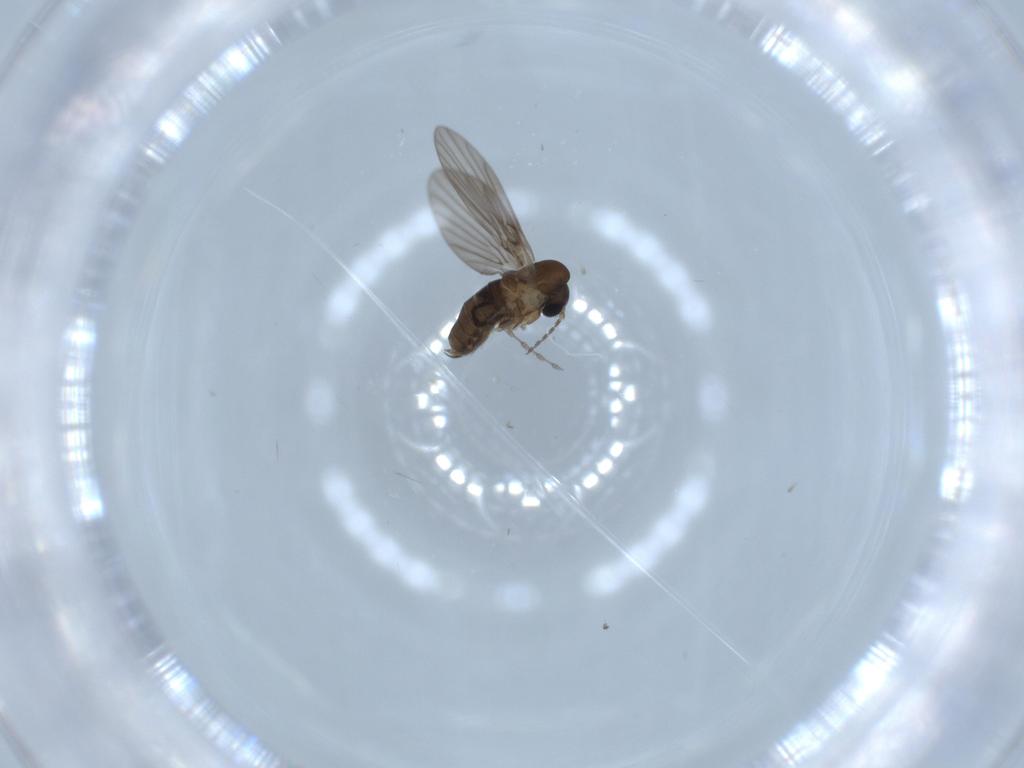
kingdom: Animalia
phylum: Arthropoda
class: Insecta
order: Diptera
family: Psychodidae
